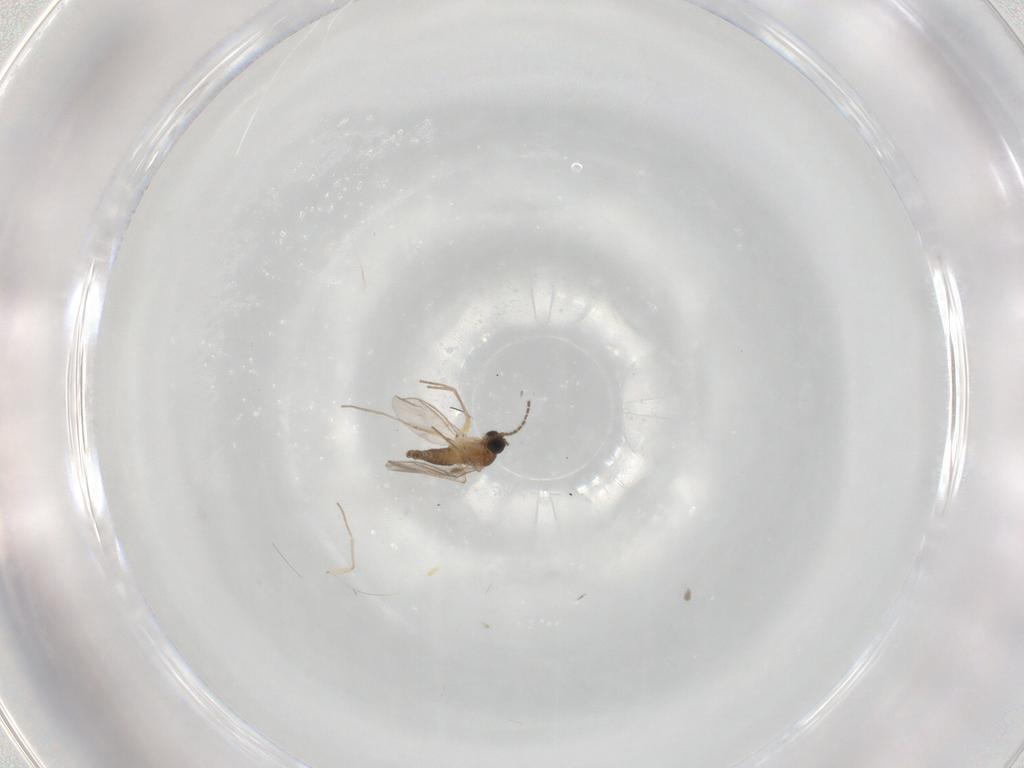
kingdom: Animalia
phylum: Arthropoda
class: Insecta
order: Diptera
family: Sciaridae
